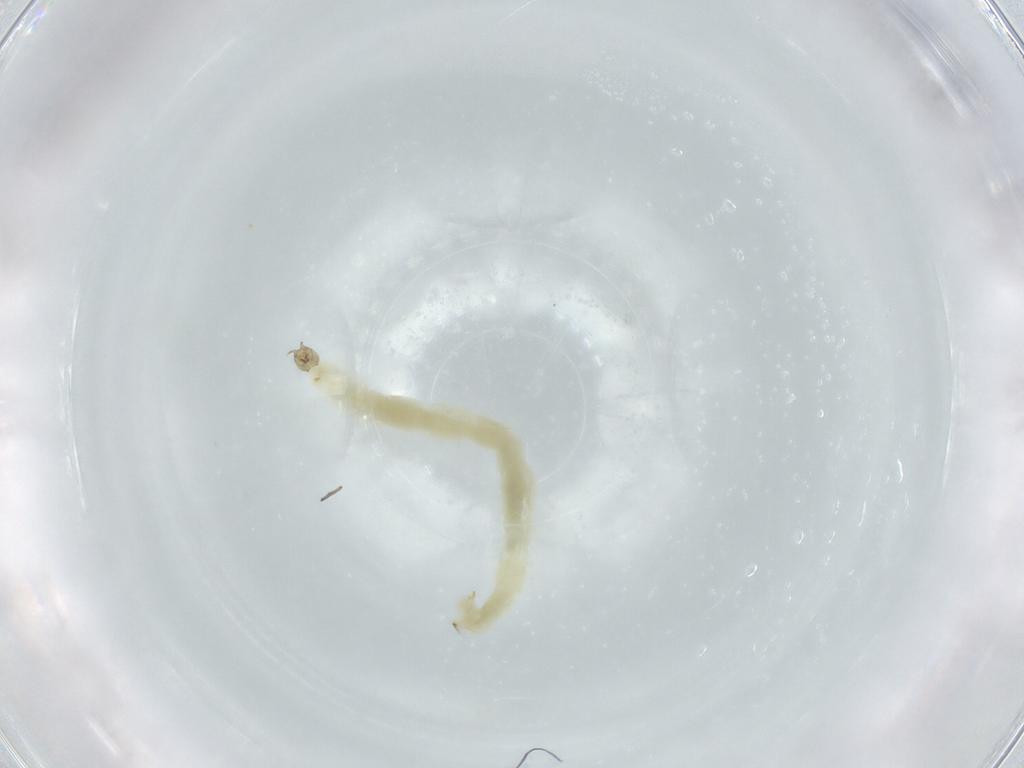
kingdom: Animalia
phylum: Arthropoda
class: Insecta
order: Diptera
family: Chironomidae
